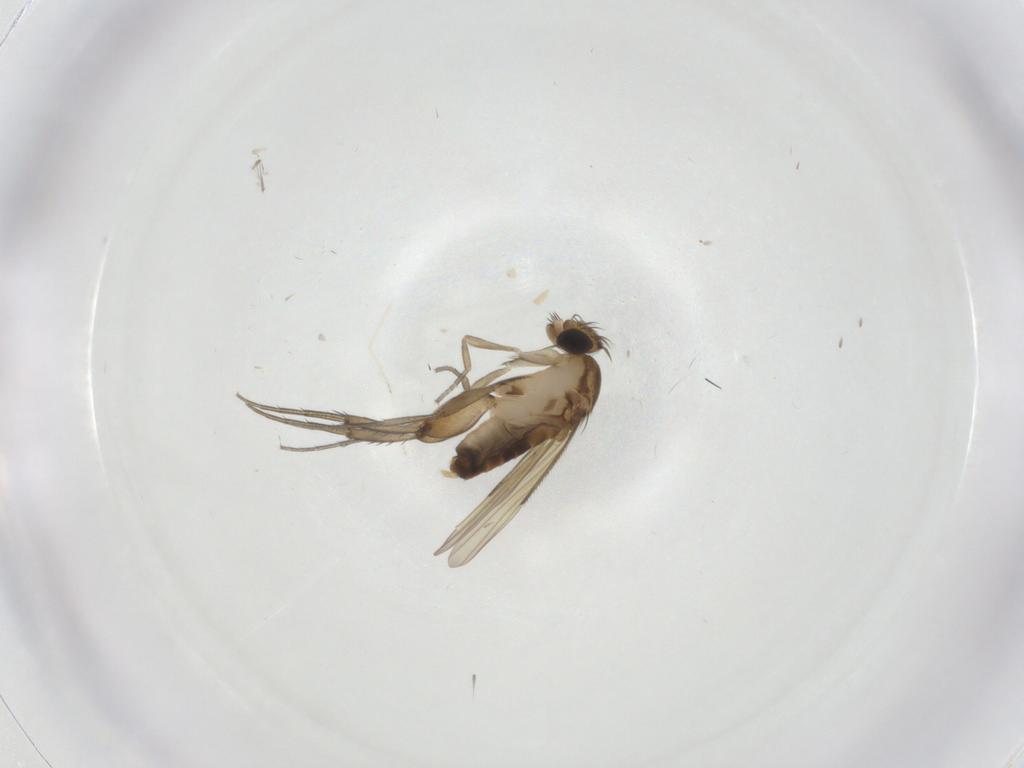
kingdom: Animalia
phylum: Arthropoda
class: Insecta
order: Diptera
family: Phoridae
